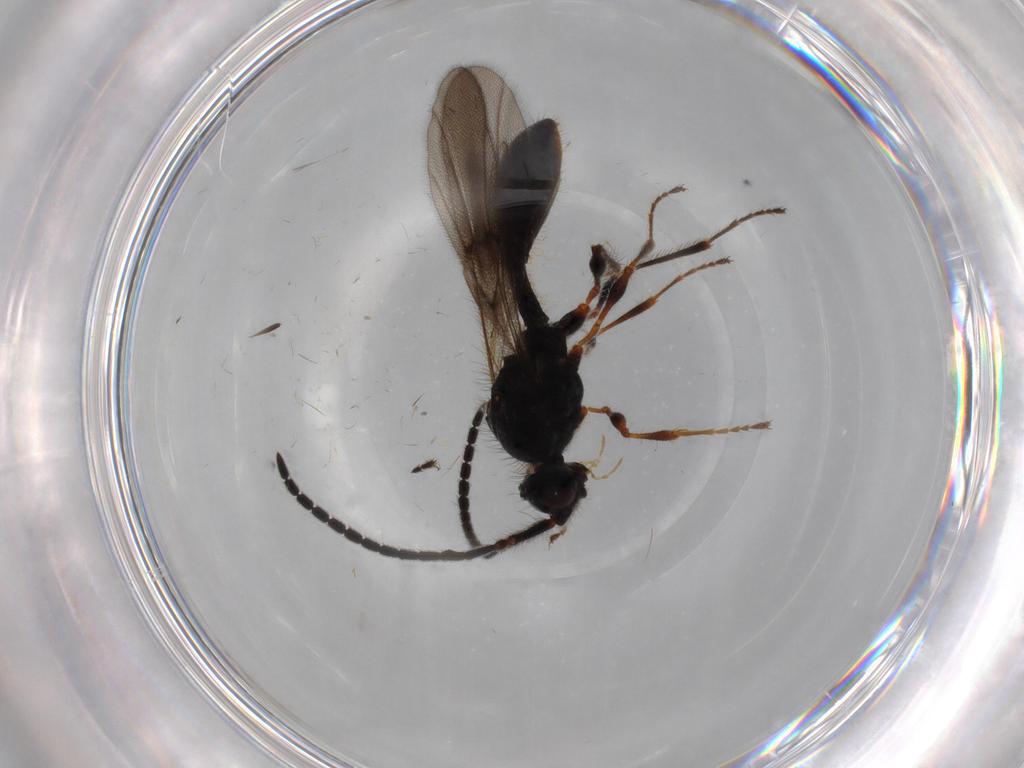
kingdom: Animalia
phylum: Arthropoda
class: Insecta
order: Hymenoptera
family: Diapriidae
